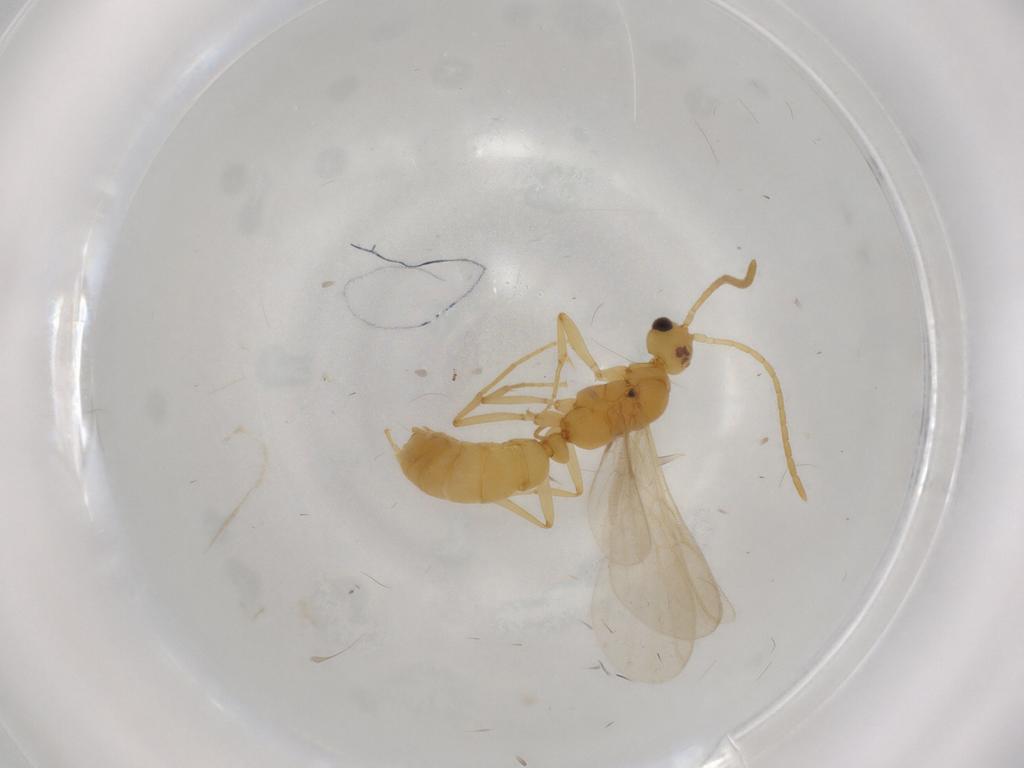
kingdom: Animalia
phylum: Arthropoda
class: Insecta
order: Hymenoptera
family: Formicidae
